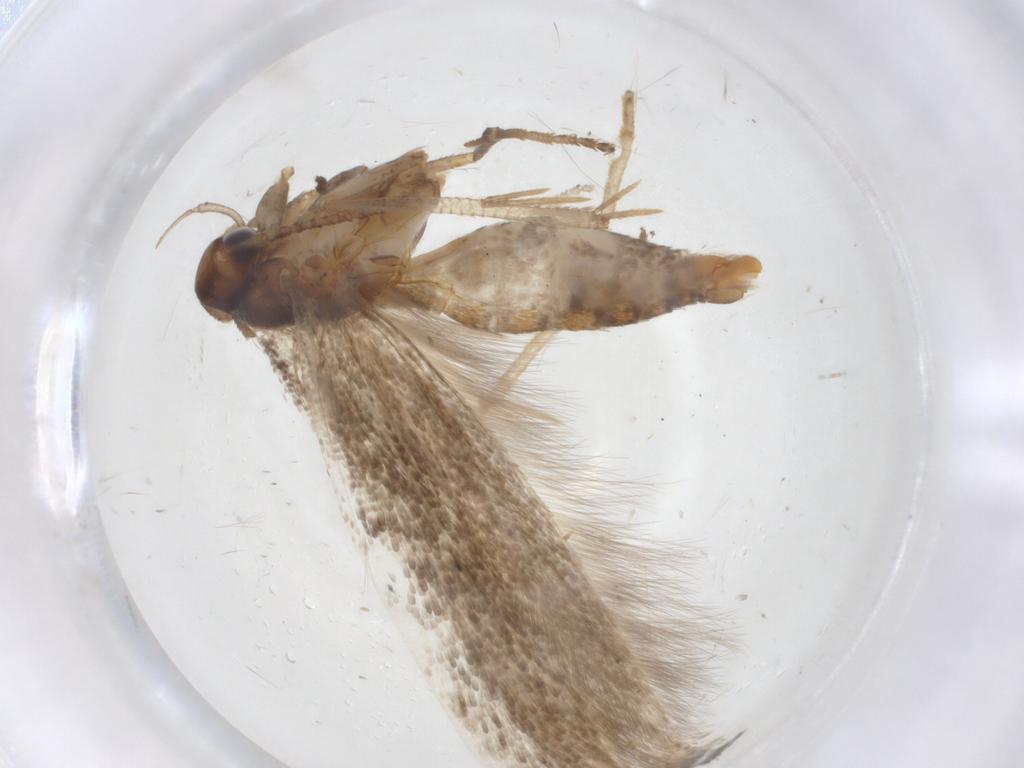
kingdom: Animalia
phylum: Arthropoda
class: Insecta
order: Lepidoptera
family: Momphidae
